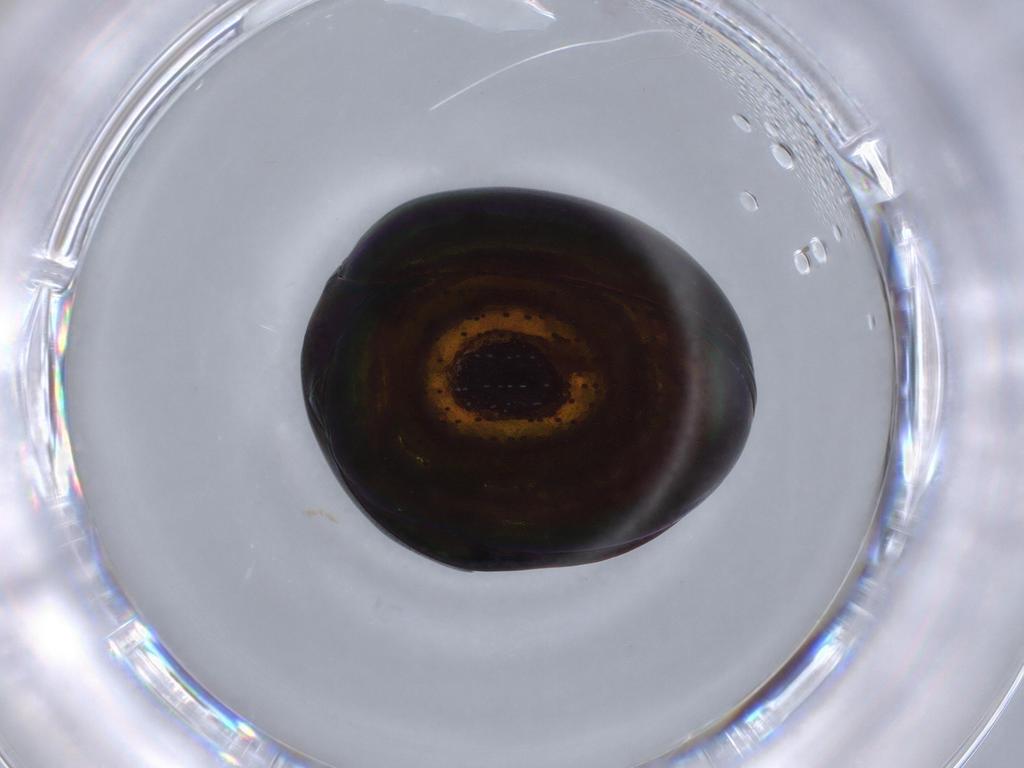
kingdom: Animalia
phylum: Arthropoda
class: Insecta
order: Coleoptera
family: Hybosoridae
